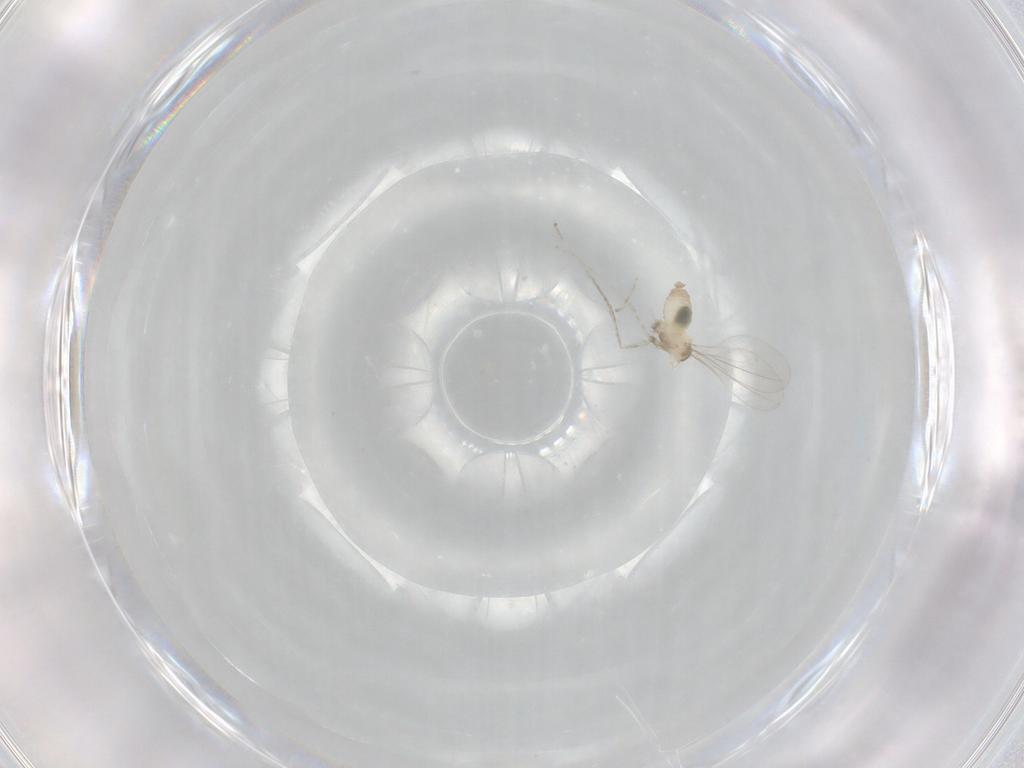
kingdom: Animalia
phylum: Arthropoda
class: Insecta
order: Diptera
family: Cecidomyiidae
